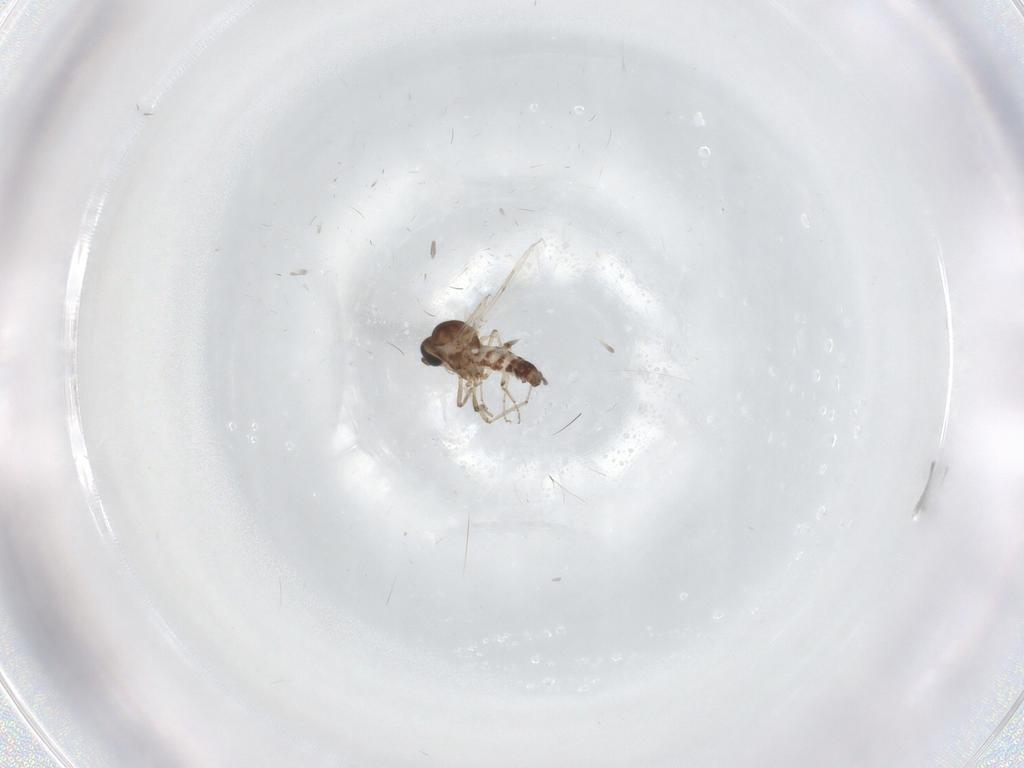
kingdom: Animalia
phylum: Arthropoda
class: Insecta
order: Diptera
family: Ceratopogonidae
